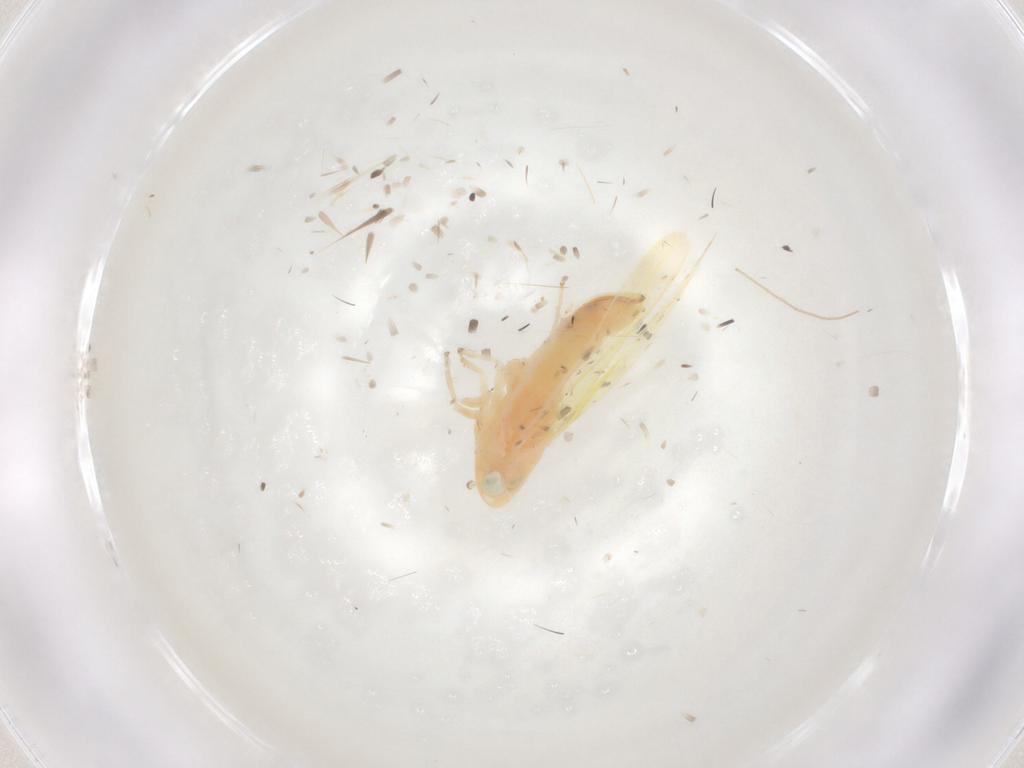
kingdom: Animalia
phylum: Arthropoda
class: Insecta
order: Hemiptera
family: Cicadellidae
